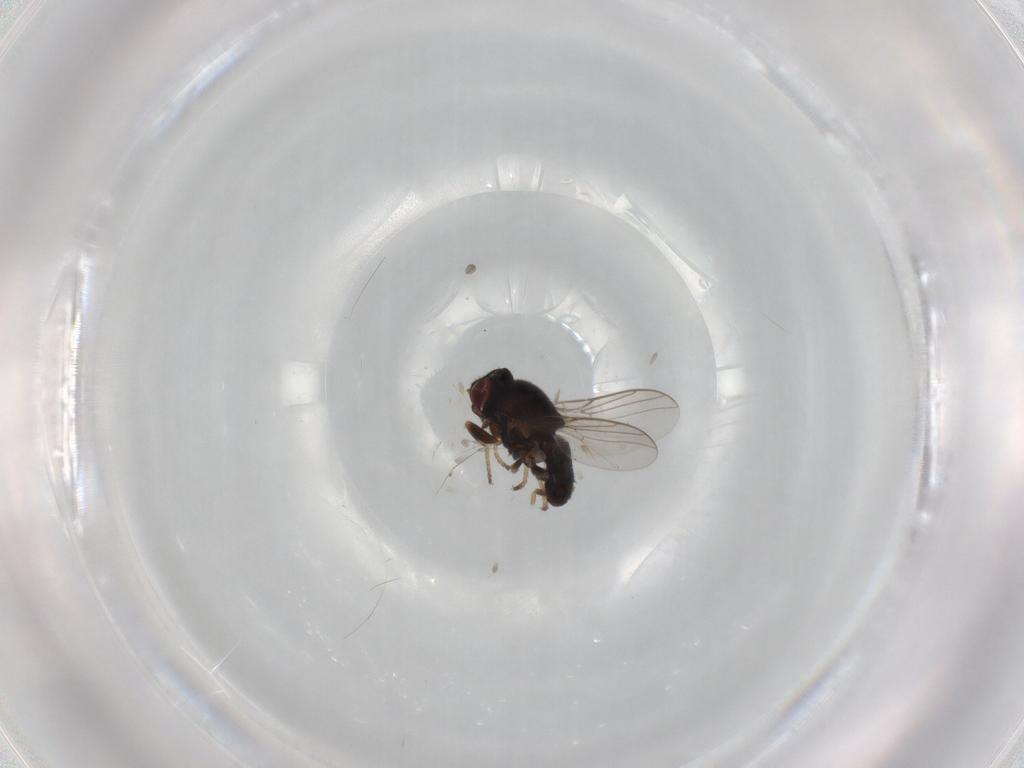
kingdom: Animalia
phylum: Arthropoda
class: Insecta
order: Diptera
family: Chloropidae
